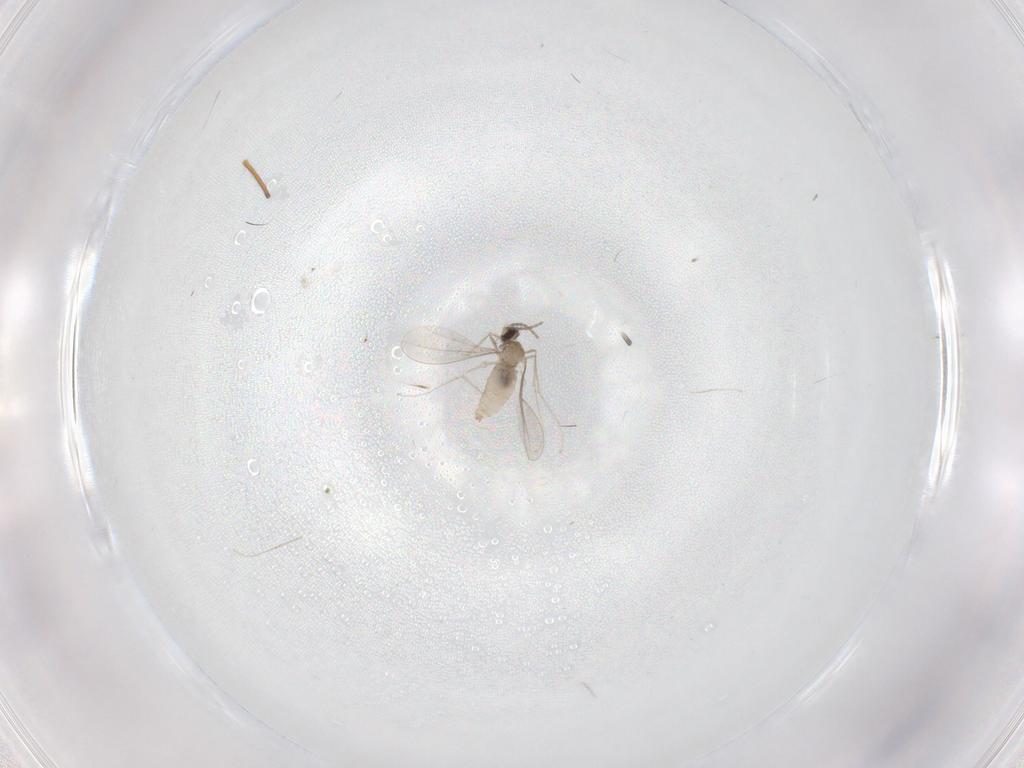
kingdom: Animalia
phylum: Arthropoda
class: Insecta
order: Diptera
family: Cecidomyiidae
